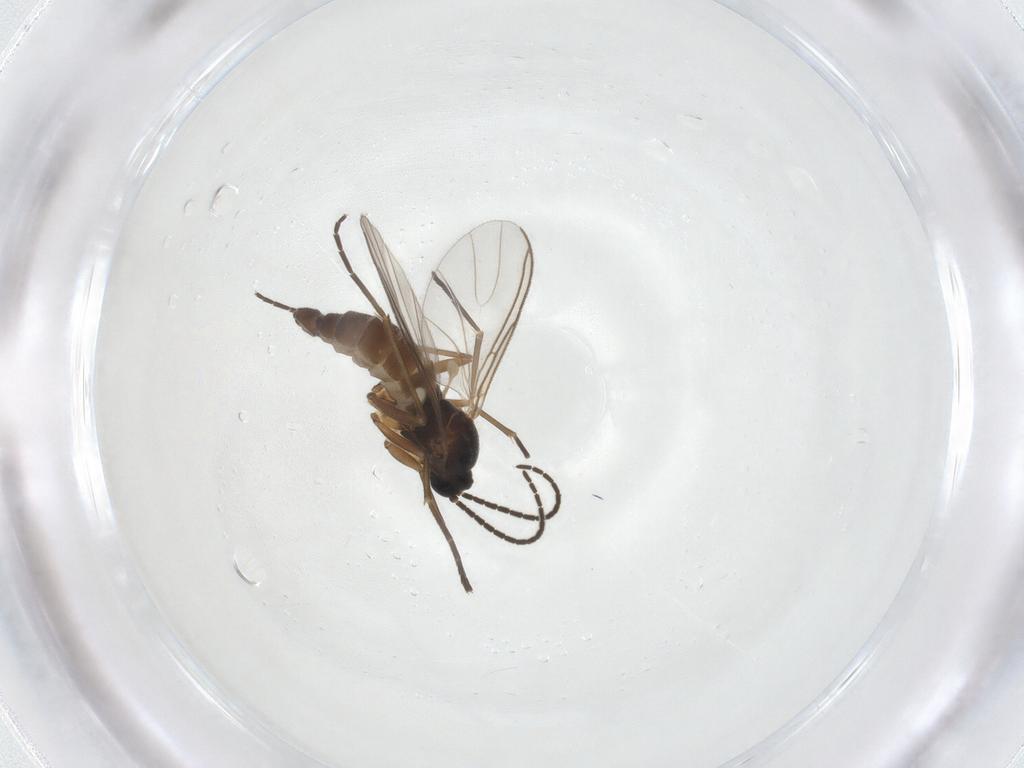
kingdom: Animalia
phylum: Arthropoda
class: Insecta
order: Diptera
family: Sciaridae
